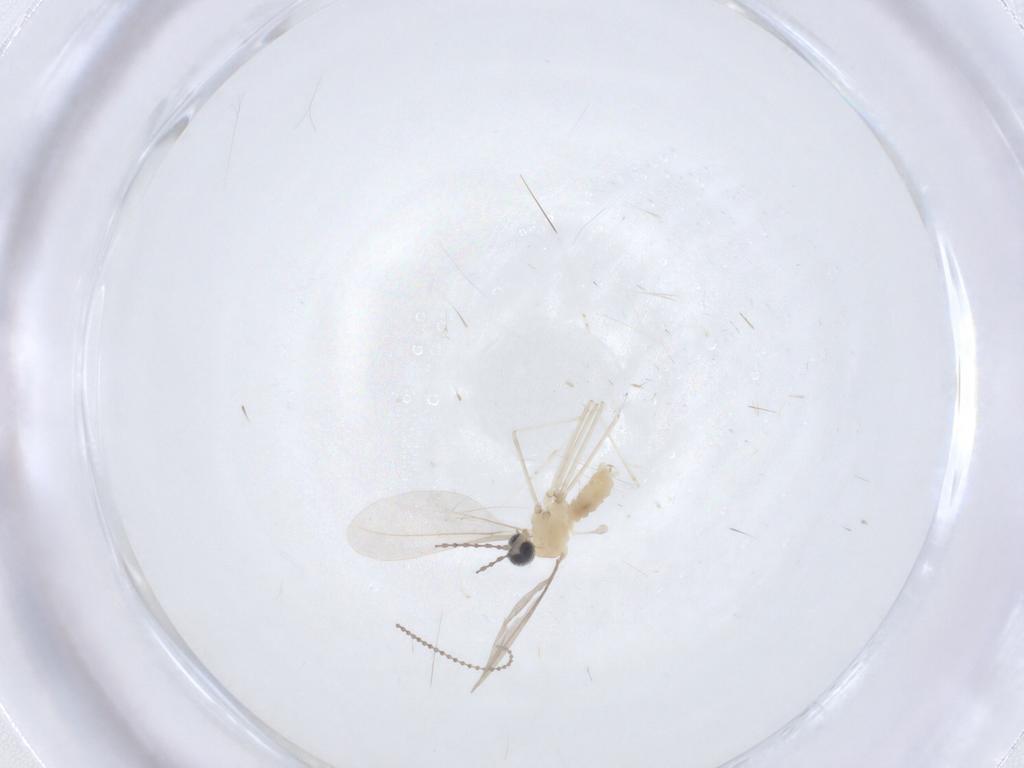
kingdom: Animalia
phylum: Arthropoda
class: Insecta
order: Diptera
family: Cecidomyiidae
